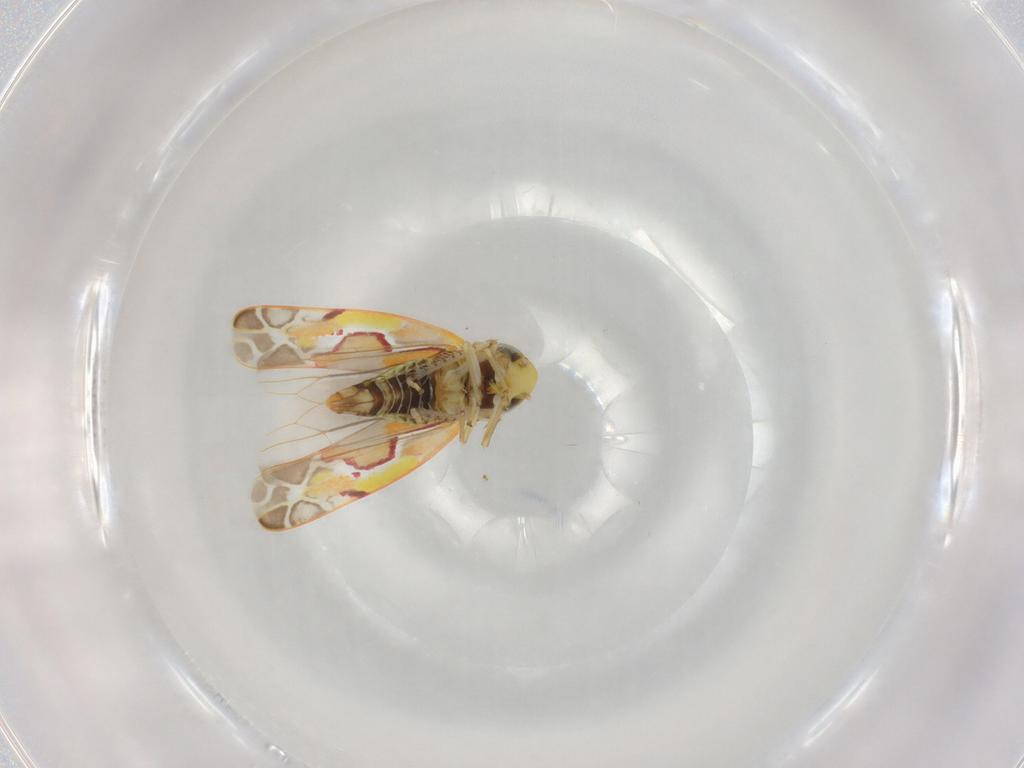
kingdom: Animalia
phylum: Arthropoda
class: Insecta
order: Hemiptera
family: Cicadellidae
